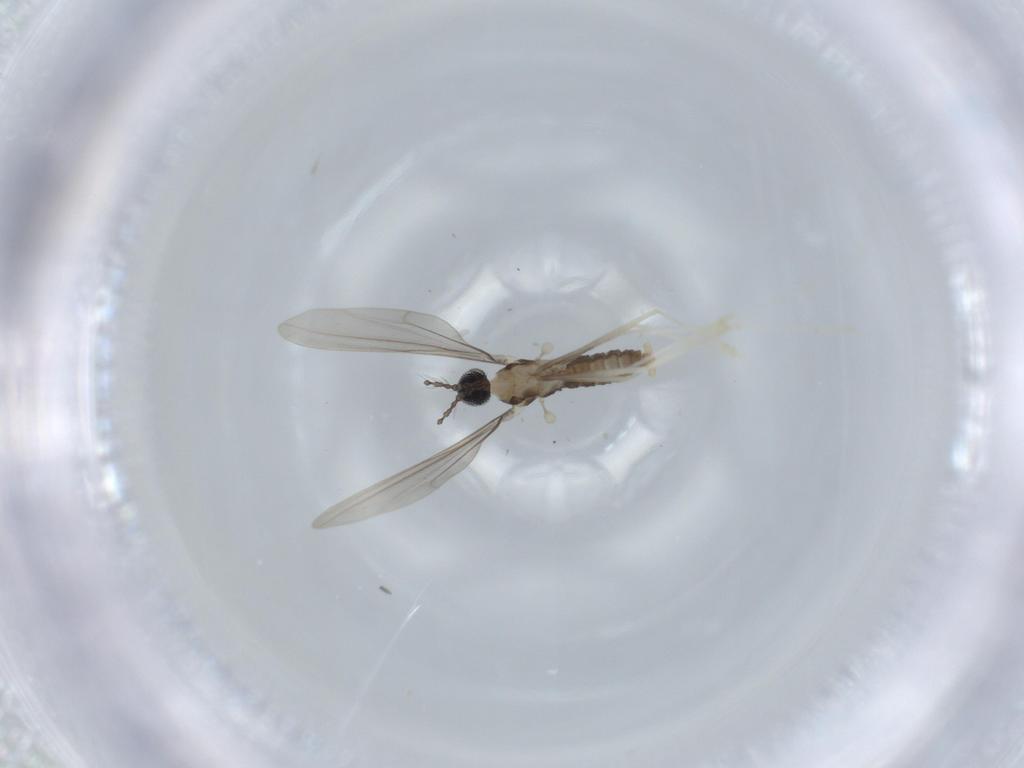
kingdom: Animalia
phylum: Arthropoda
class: Insecta
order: Diptera
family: Cecidomyiidae
